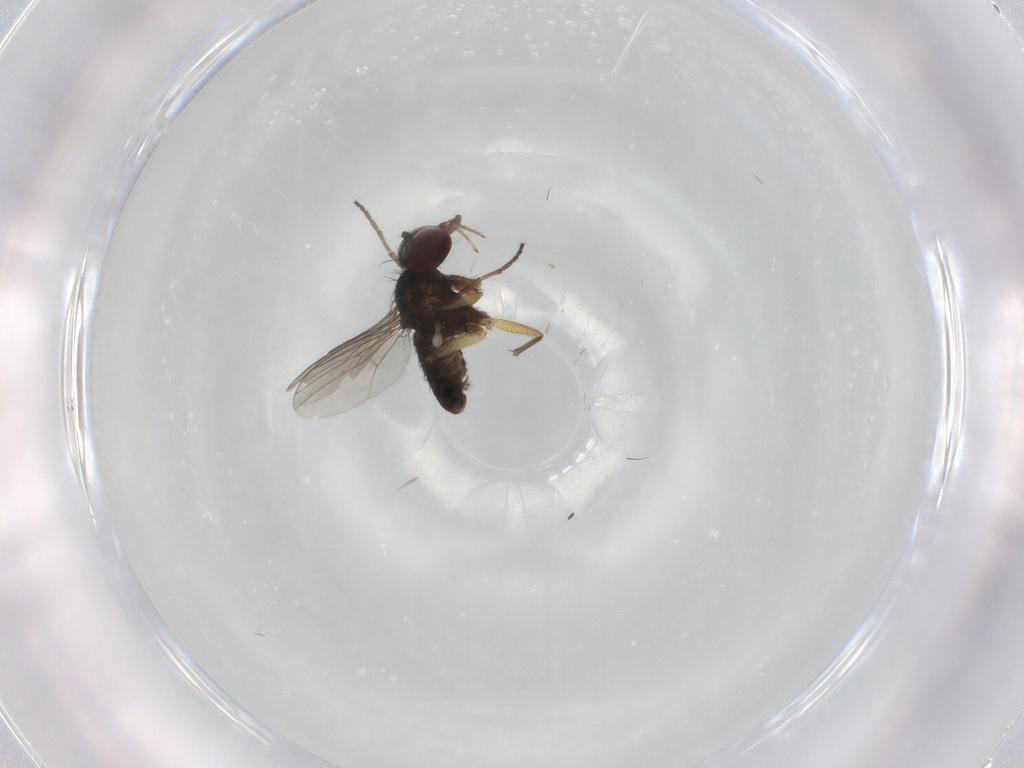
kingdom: Animalia
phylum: Arthropoda
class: Insecta
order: Diptera
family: Dolichopodidae
